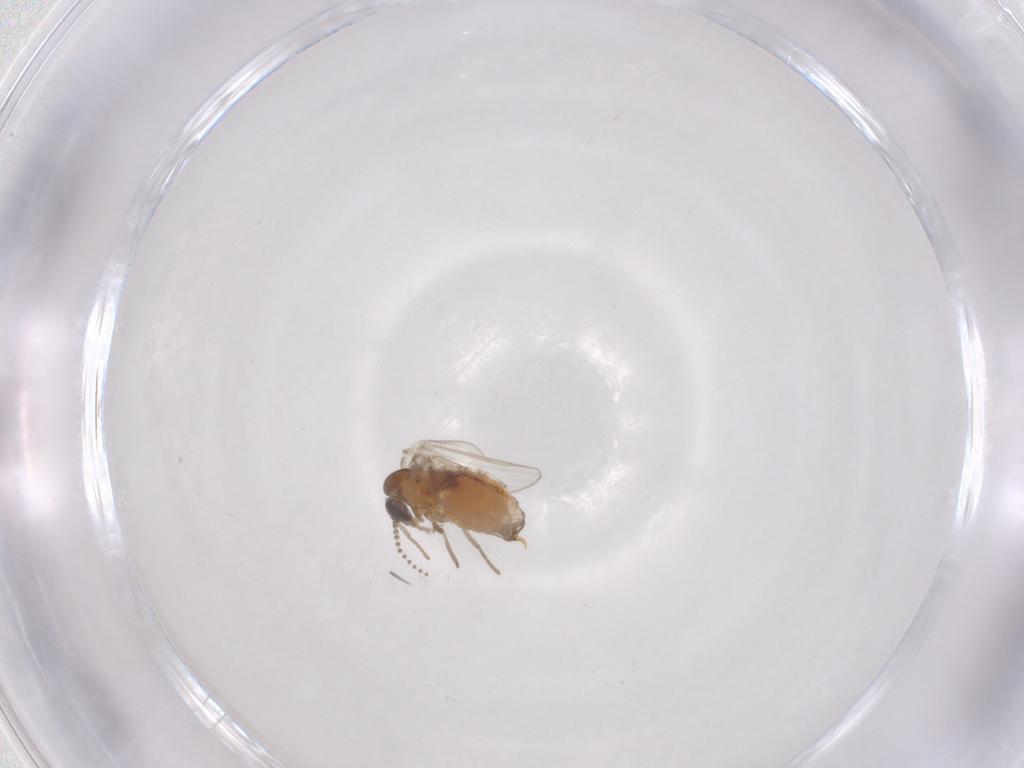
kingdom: Animalia
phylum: Arthropoda
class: Insecta
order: Diptera
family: Psychodidae
